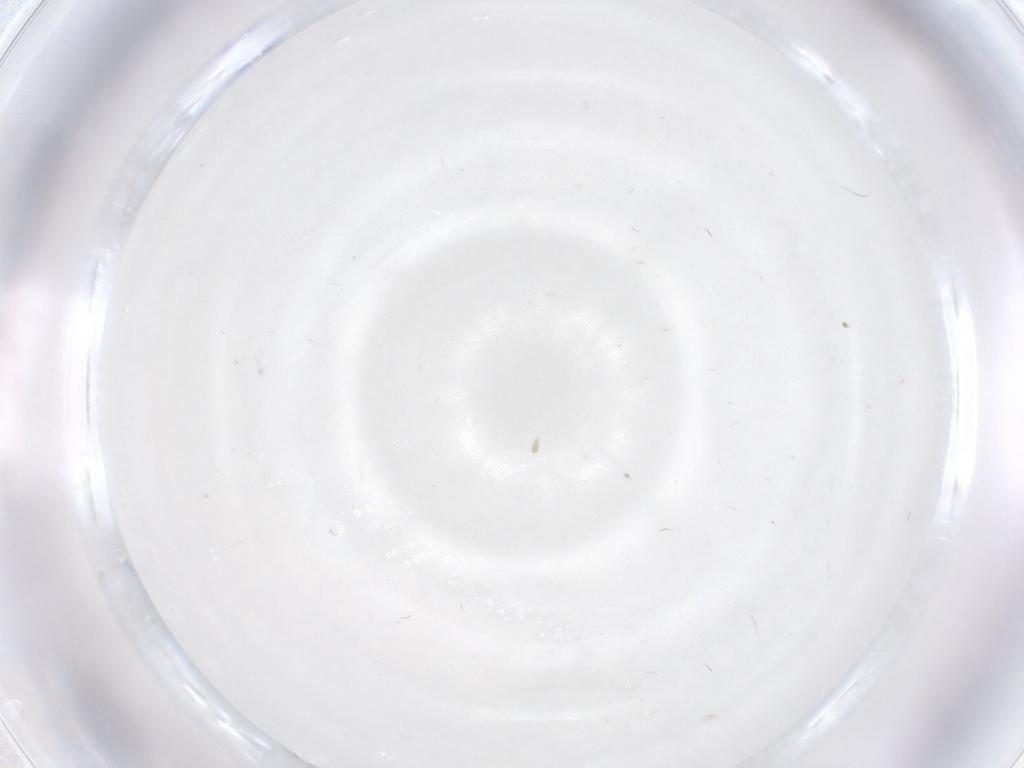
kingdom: Animalia
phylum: Arthropoda
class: Insecta
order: Diptera
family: Cecidomyiidae
